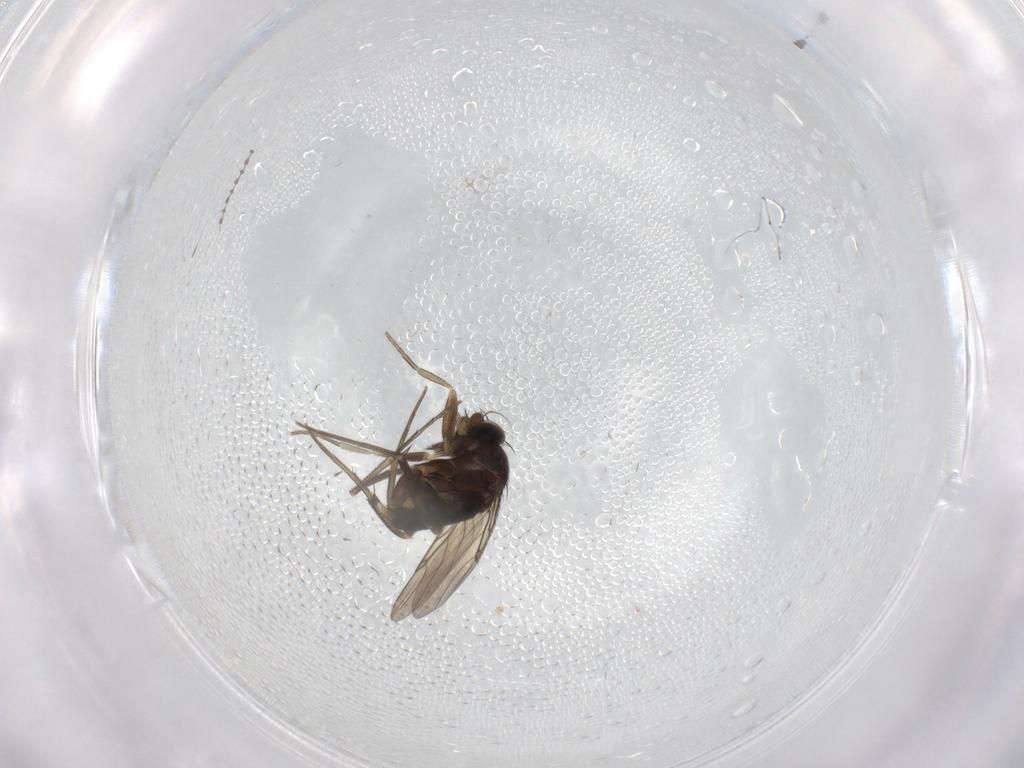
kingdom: Animalia
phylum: Arthropoda
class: Insecta
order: Diptera
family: Phoridae
